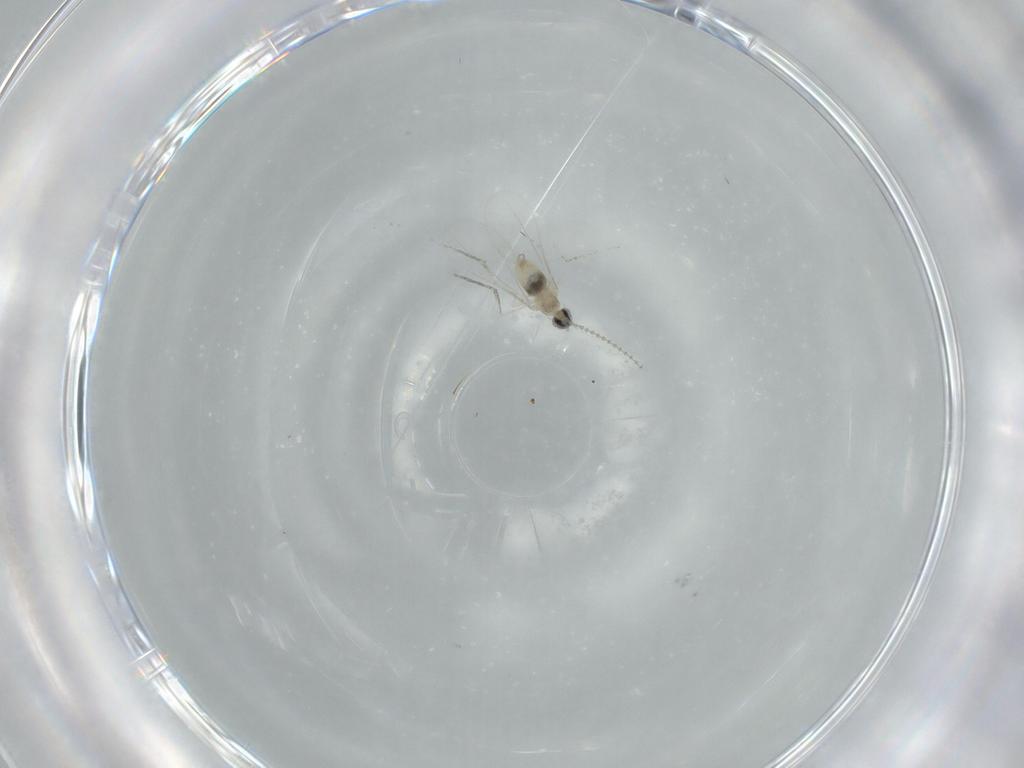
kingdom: Animalia
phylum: Arthropoda
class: Insecta
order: Diptera
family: Cecidomyiidae
